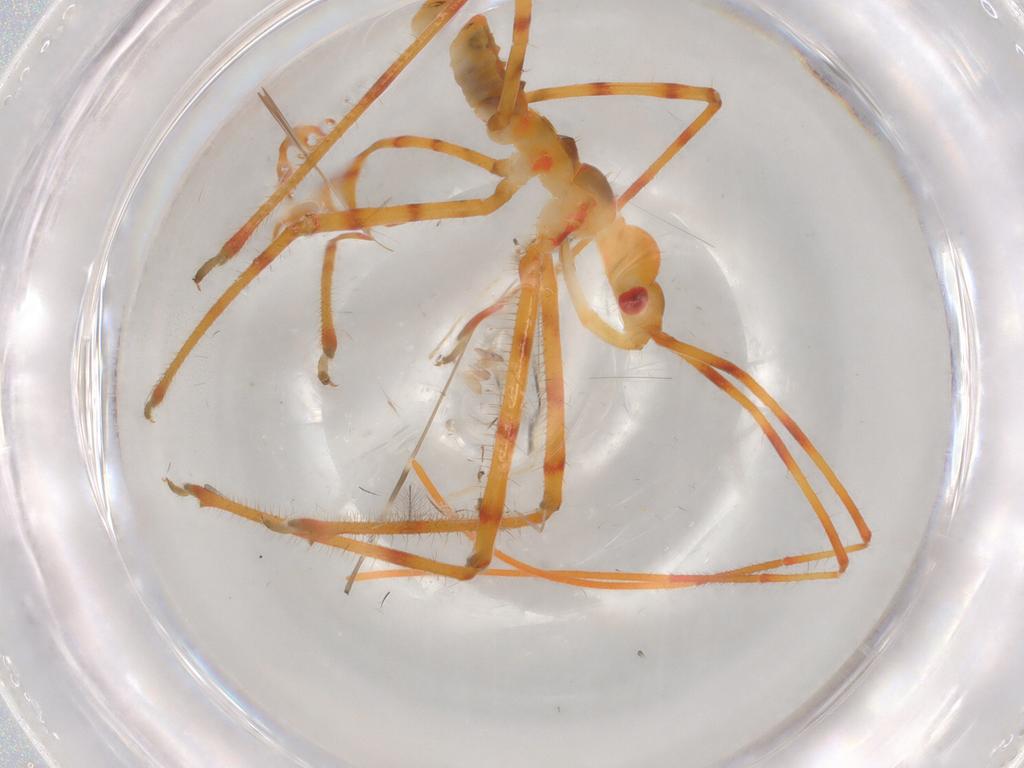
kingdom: Animalia
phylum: Arthropoda
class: Insecta
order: Hemiptera
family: Reduviidae
